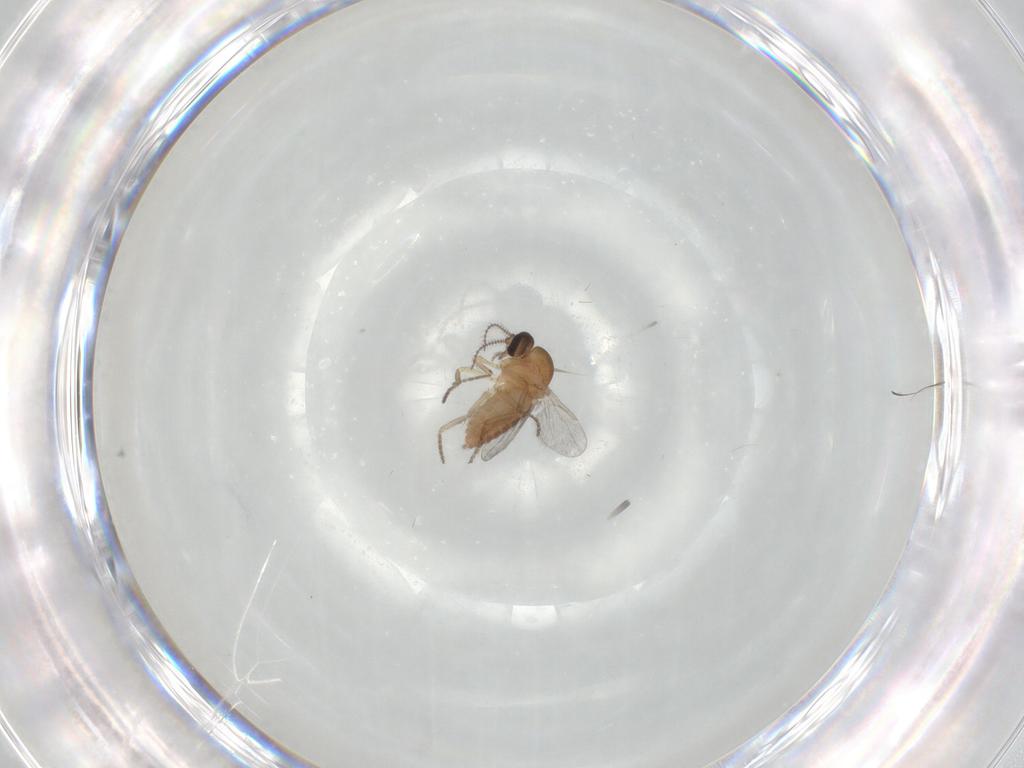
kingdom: Animalia
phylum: Arthropoda
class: Insecta
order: Diptera
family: Ceratopogonidae
